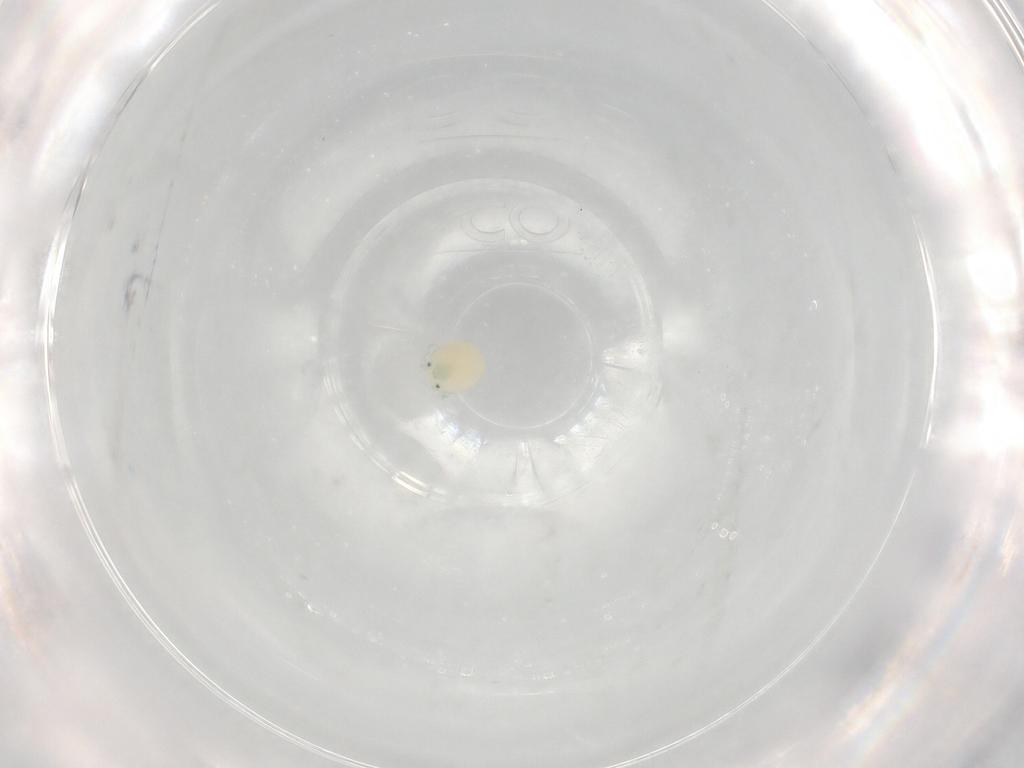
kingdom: Animalia
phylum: Arthropoda
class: Arachnida
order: Trombidiformes
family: Arrenuridae
